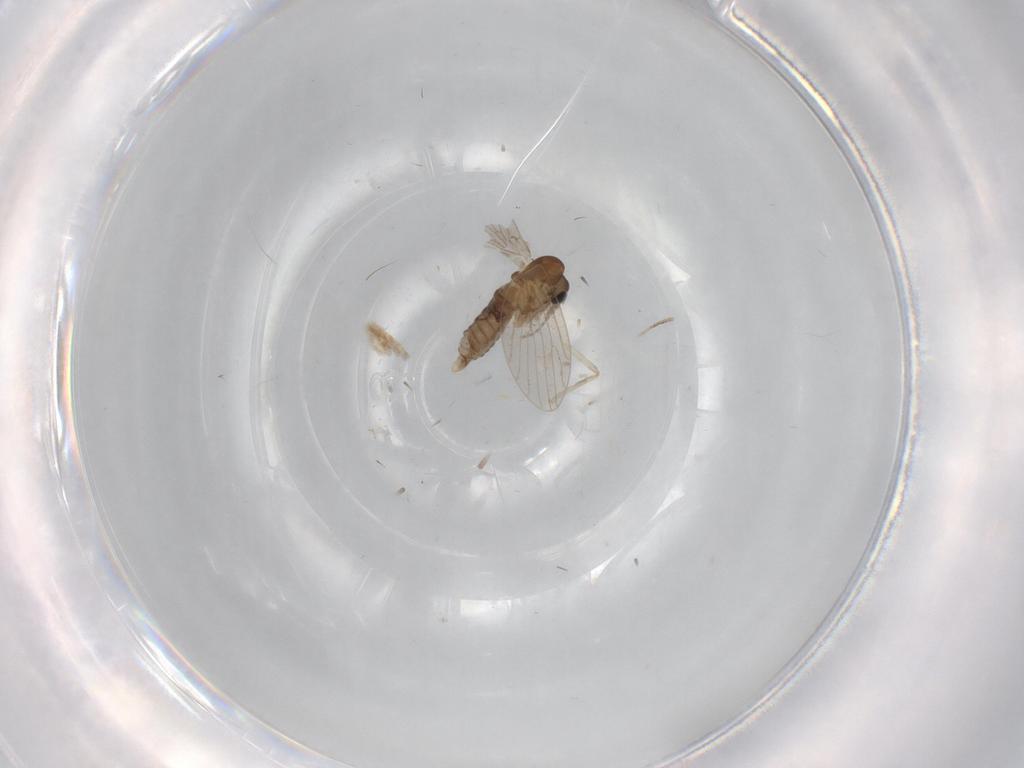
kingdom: Animalia
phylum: Arthropoda
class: Insecta
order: Diptera
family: Psychodidae
